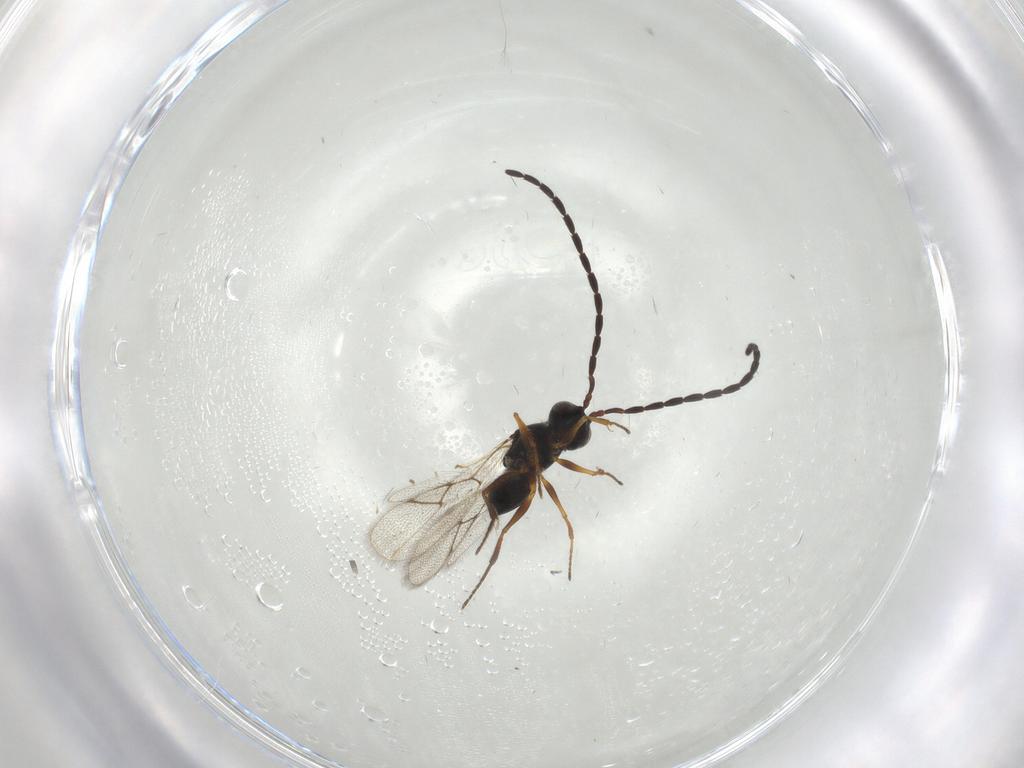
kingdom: Animalia
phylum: Arthropoda
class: Insecta
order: Hymenoptera
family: Figitidae
